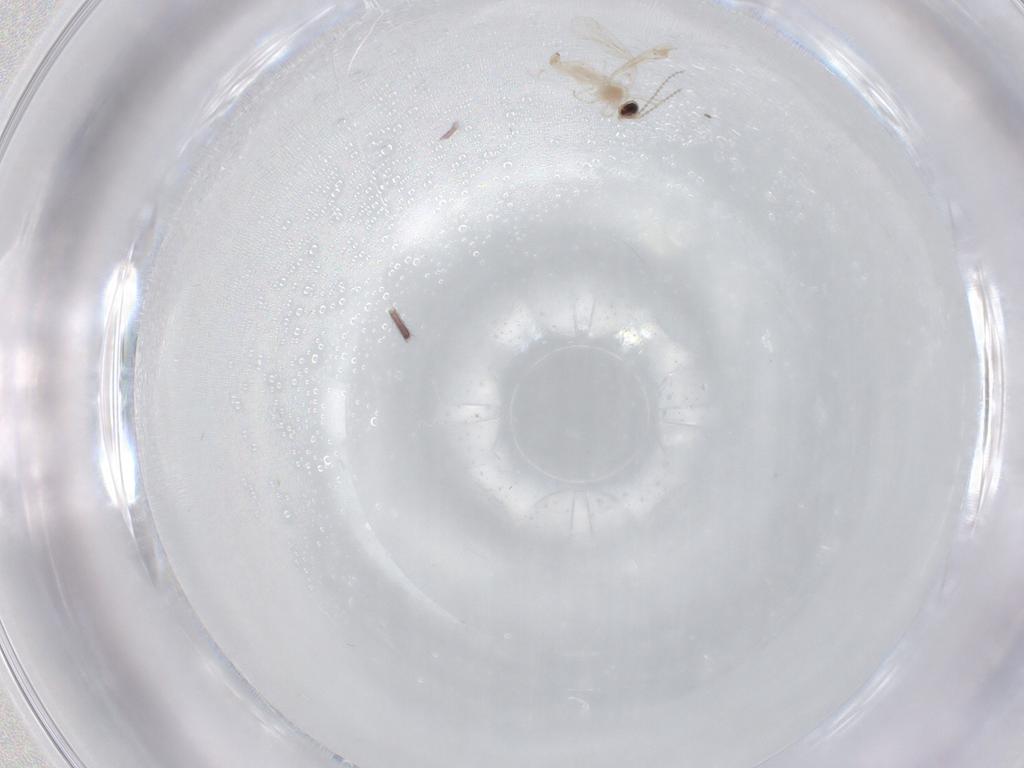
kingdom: Animalia
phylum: Arthropoda
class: Insecta
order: Diptera
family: Cecidomyiidae
